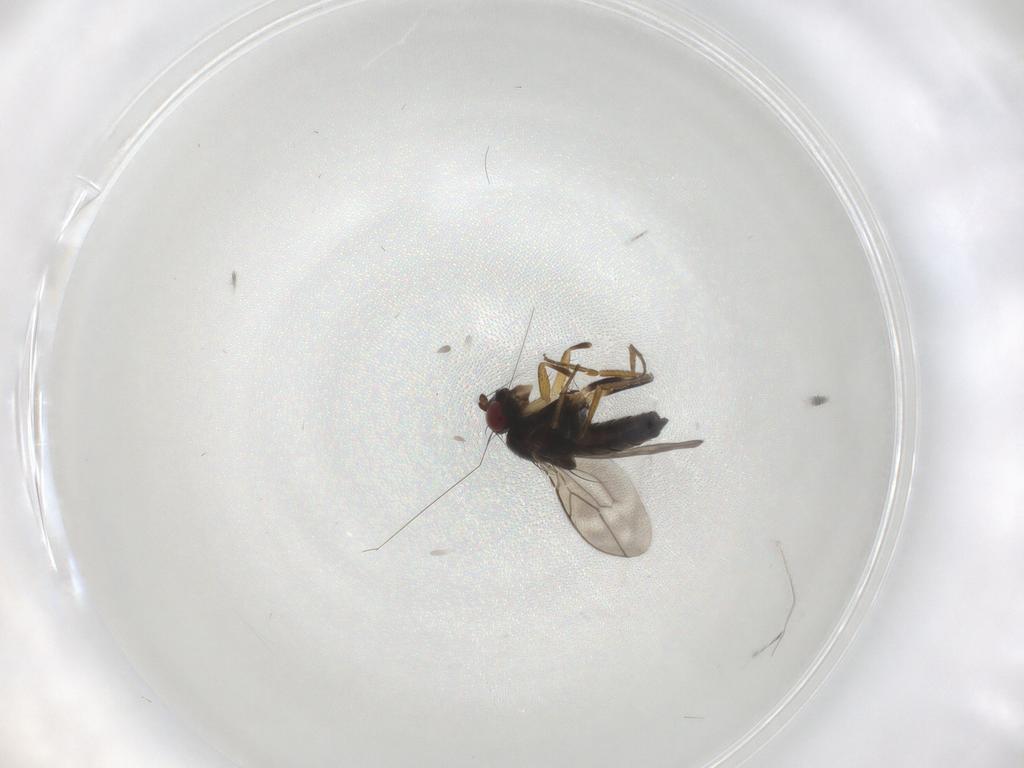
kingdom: Animalia
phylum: Arthropoda
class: Insecta
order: Diptera
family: Sphaeroceridae
